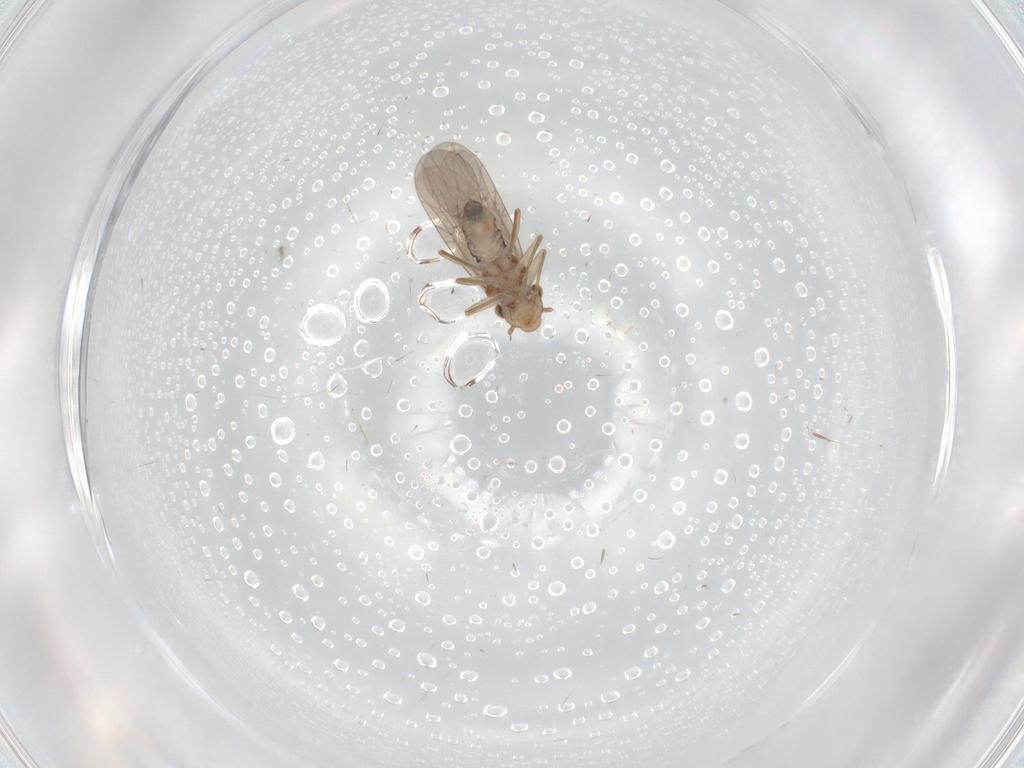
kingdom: Animalia
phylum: Arthropoda
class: Insecta
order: Psocodea
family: Lepidopsocidae
